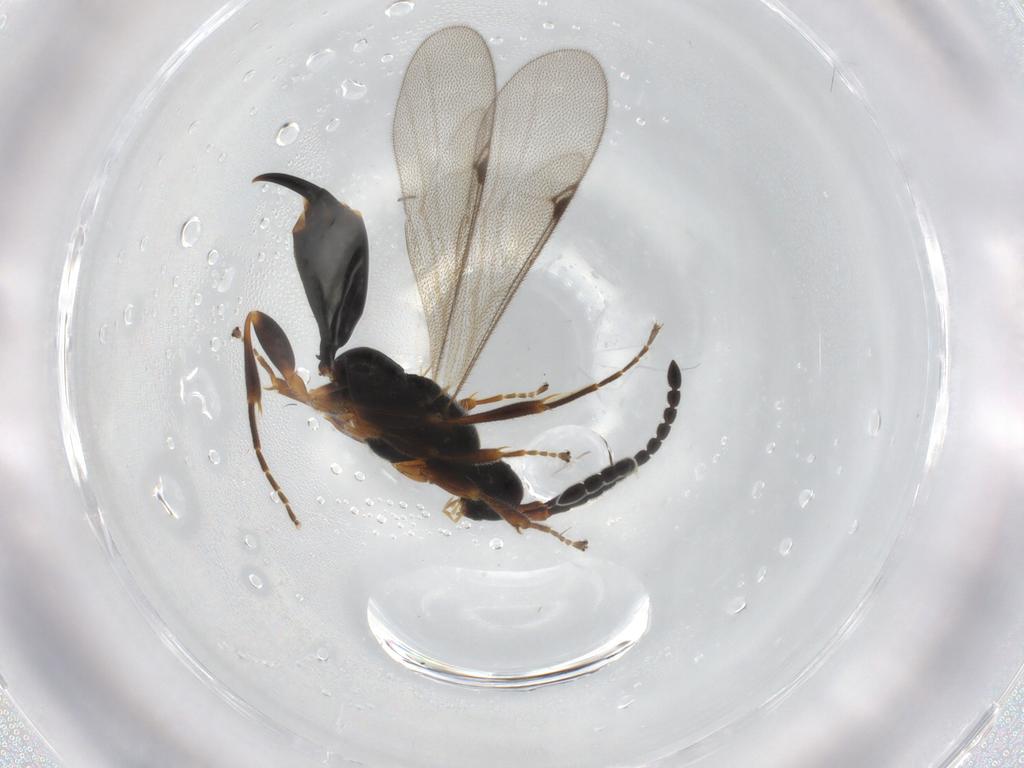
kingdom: Animalia
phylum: Arthropoda
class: Insecta
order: Hymenoptera
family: Proctotrupidae
